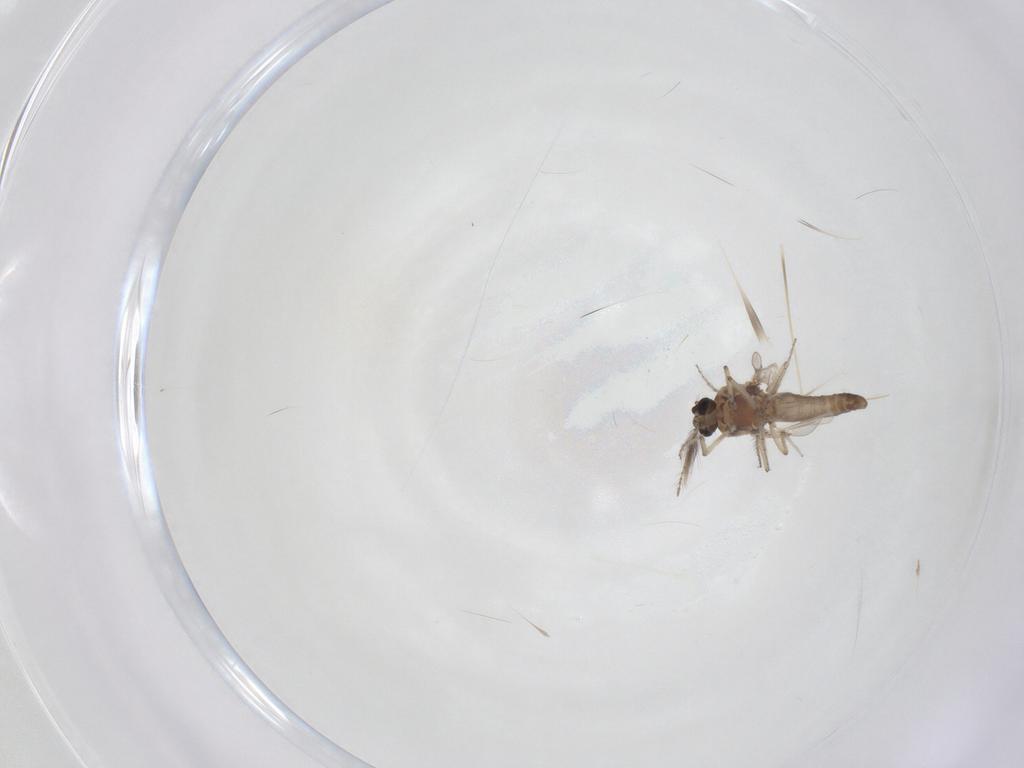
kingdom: Animalia
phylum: Arthropoda
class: Insecta
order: Diptera
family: Ceratopogonidae
